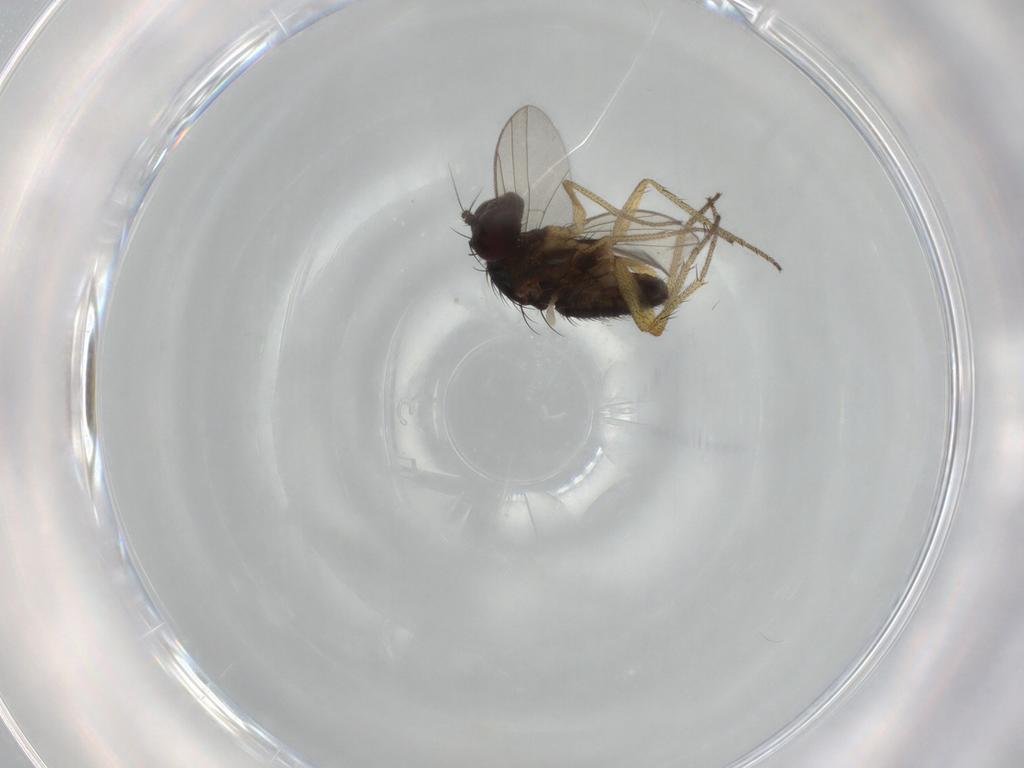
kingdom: Animalia
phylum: Arthropoda
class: Insecta
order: Diptera
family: Dolichopodidae
